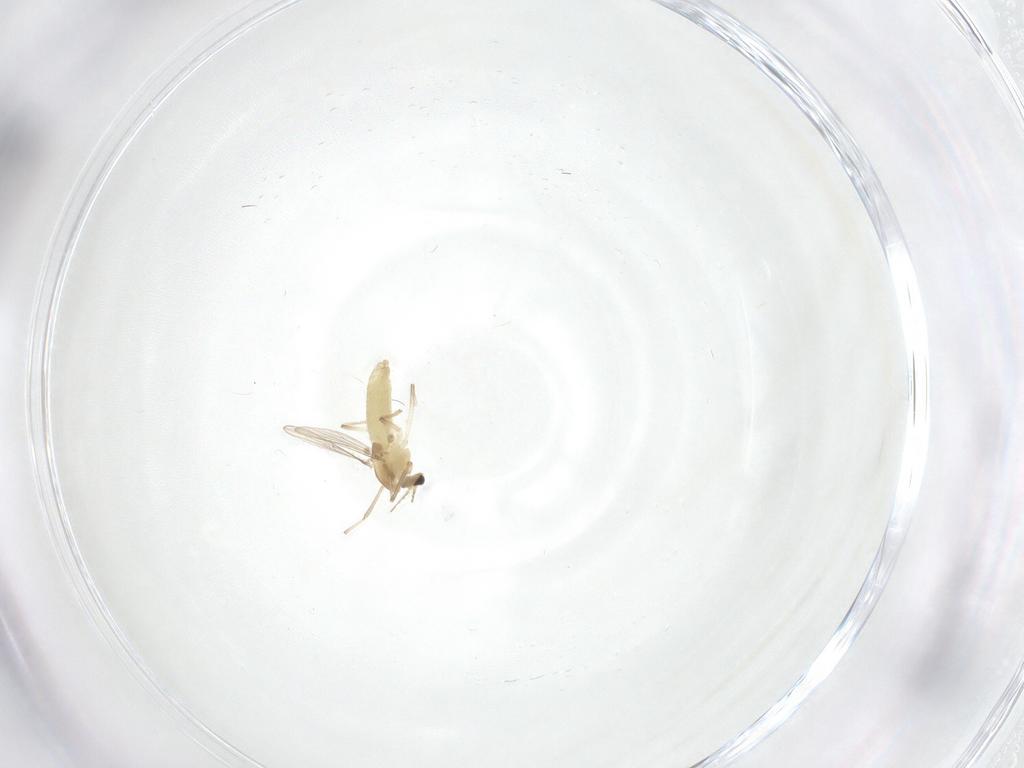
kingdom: Animalia
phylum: Arthropoda
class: Insecta
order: Diptera
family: Chironomidae
